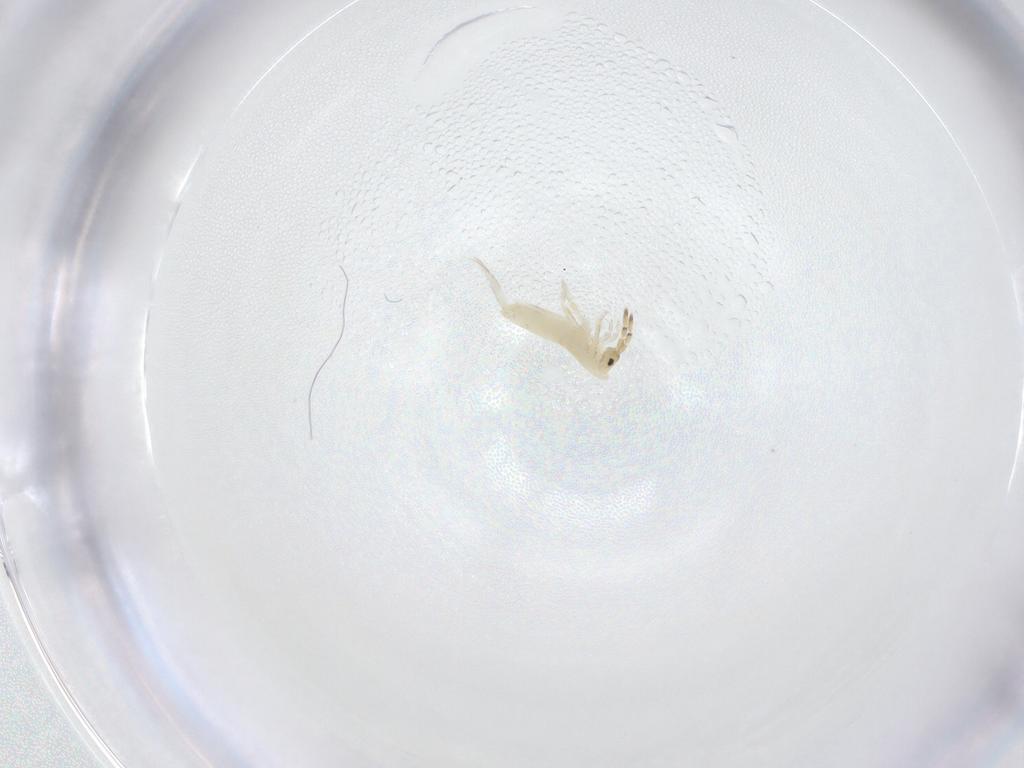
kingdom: Animalia
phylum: Arthropoda
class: Collembola
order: Entomobryomorpha
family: Entomobryidae
